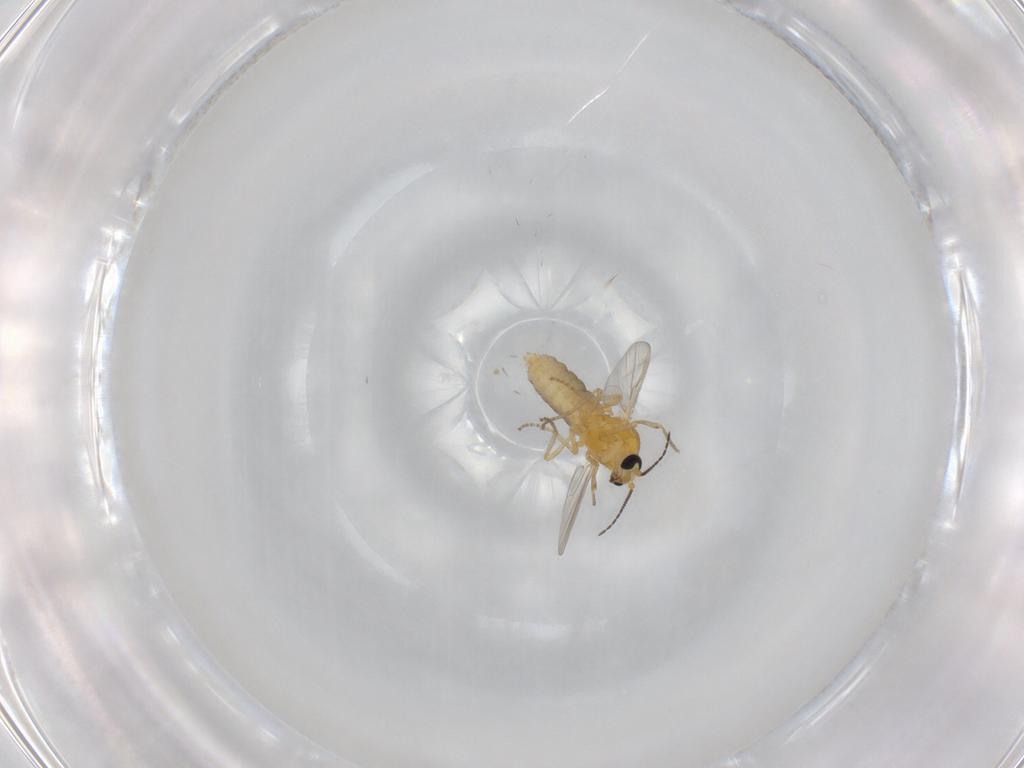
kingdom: Animalia
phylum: Arthropoda
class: Insecta
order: Diptera
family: Ceratopogonidae
